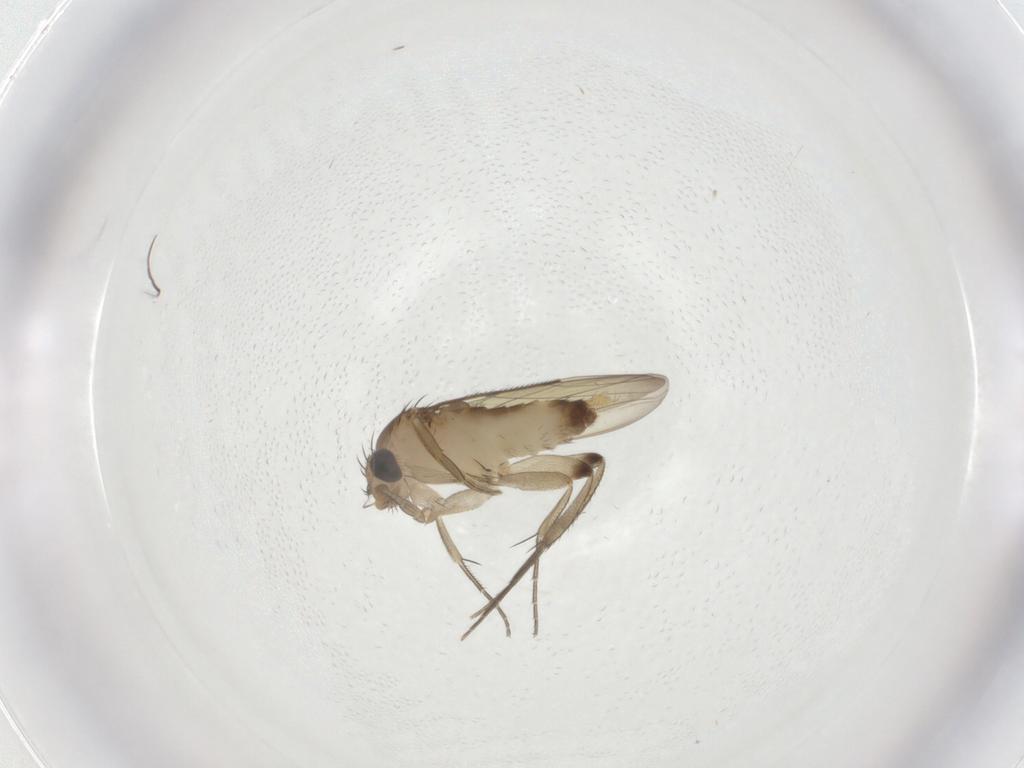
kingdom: Animalia
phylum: Arthropoda
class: Insecta
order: Diptera
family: Phoridae
